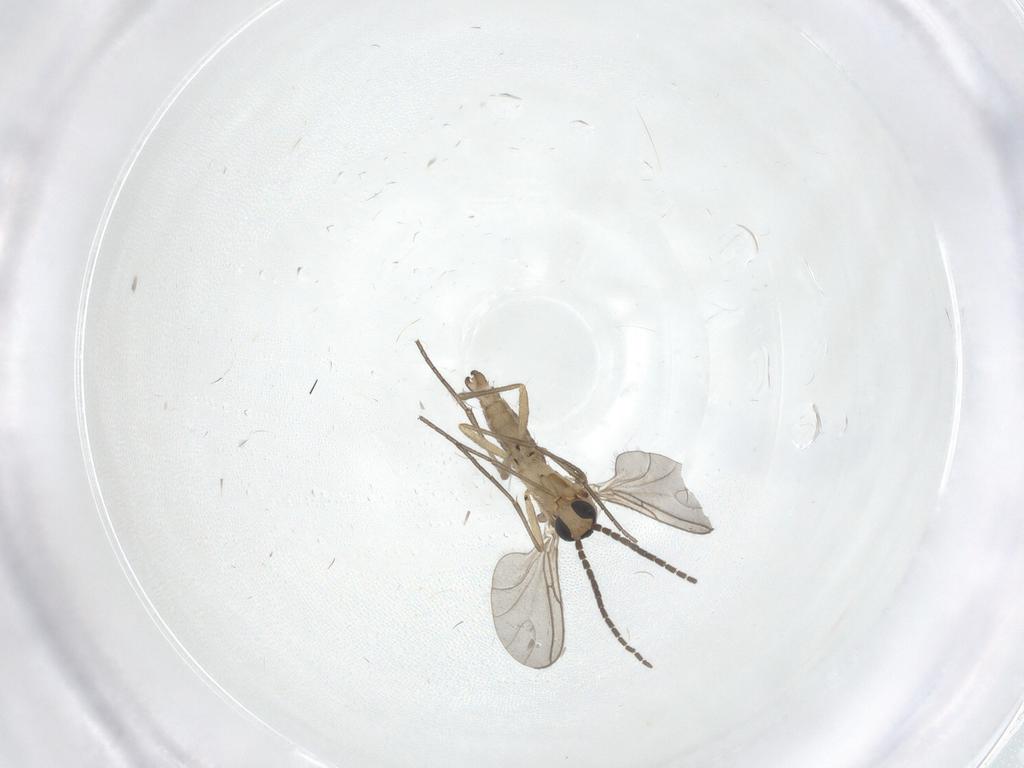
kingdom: Animalia
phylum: Arthropoda
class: Insecta
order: Diptera
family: Sciaridae
